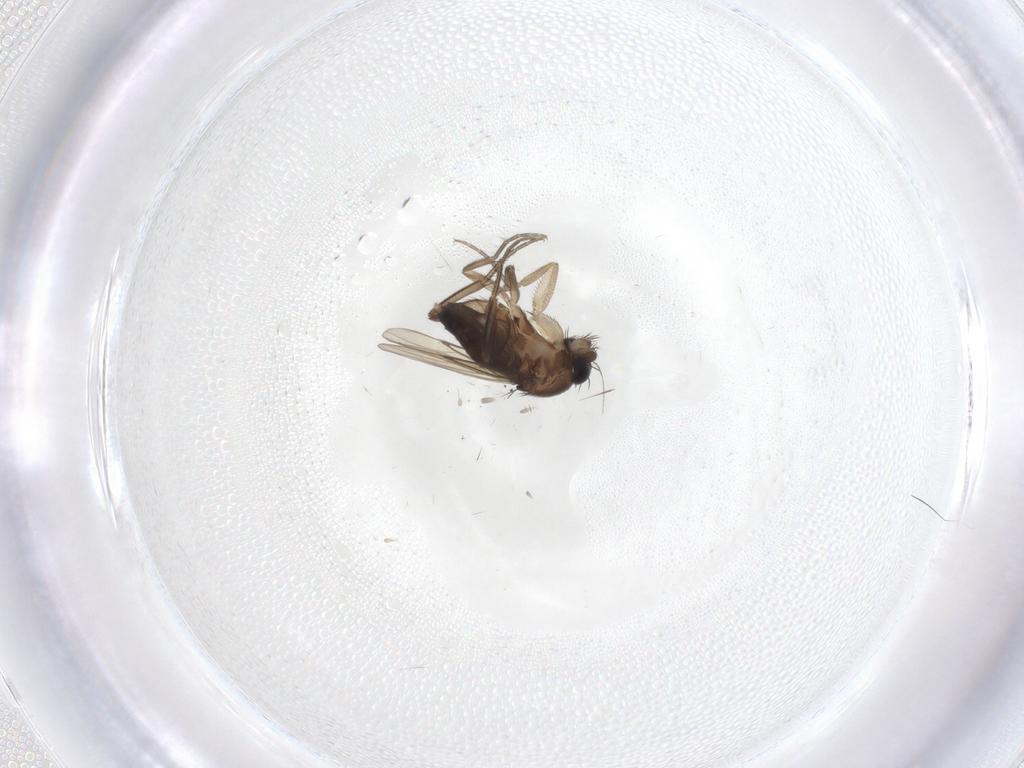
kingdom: Animalia
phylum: Arthropoda
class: Insecta
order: Diptera
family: Phoridae
